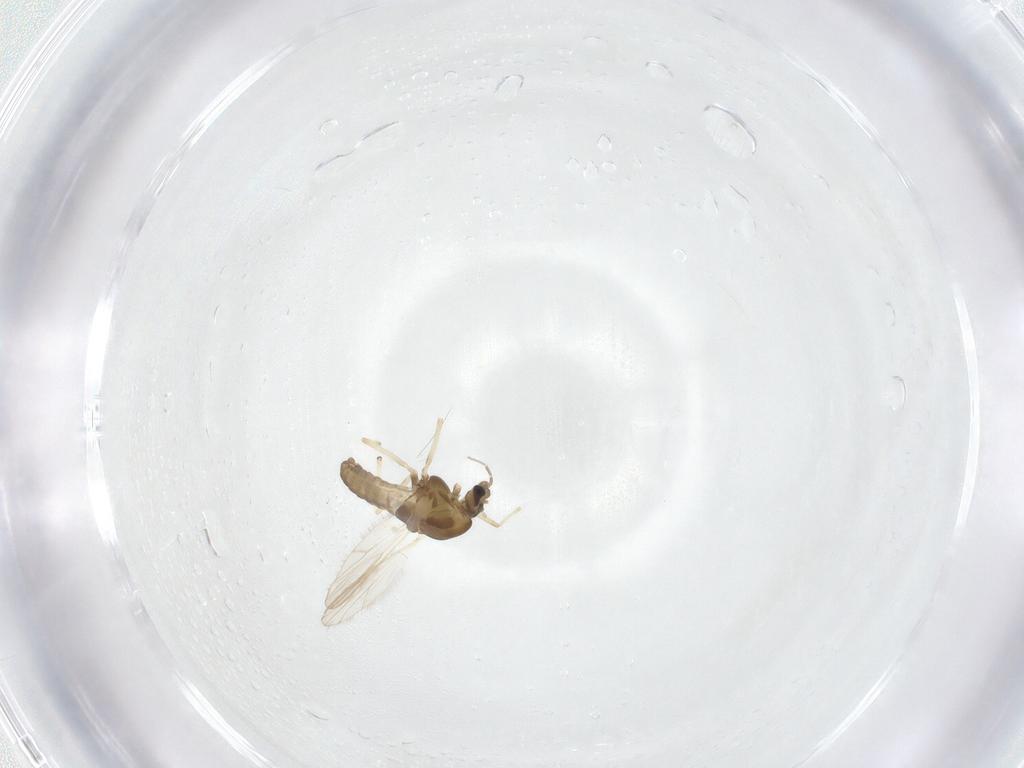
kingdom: Animalia
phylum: Arthropoda
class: Insecta
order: Diptera
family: Chironomidae
